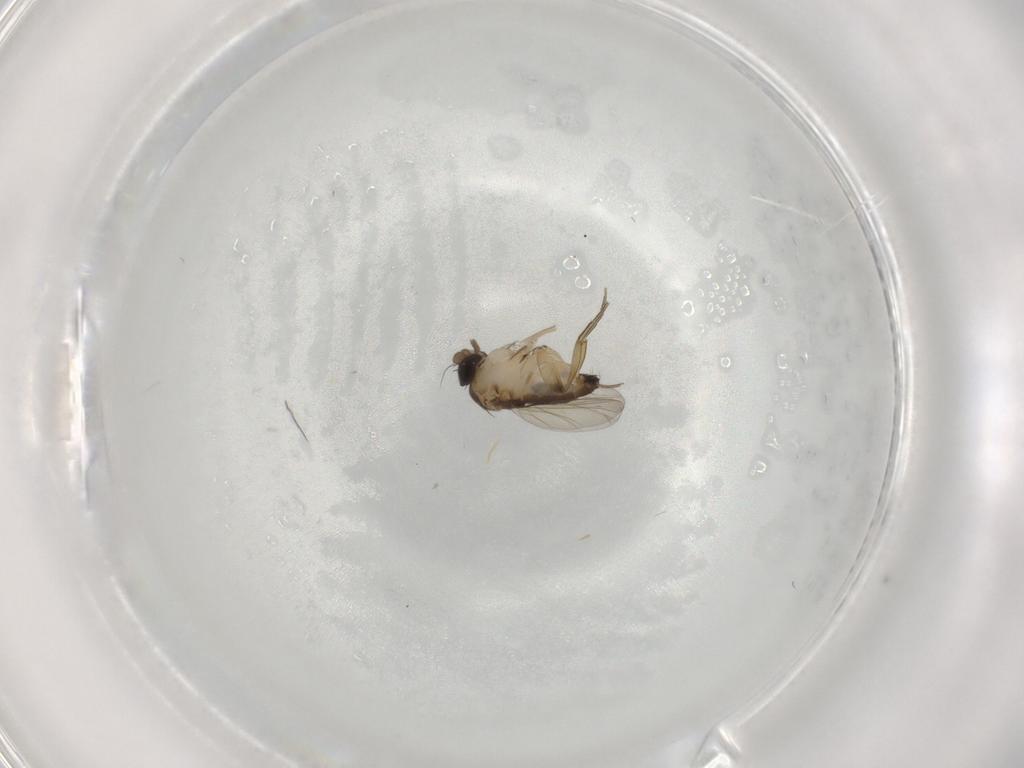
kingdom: Animalia
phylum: Arthropoda
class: Insecta
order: Diptera
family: Phoridae
